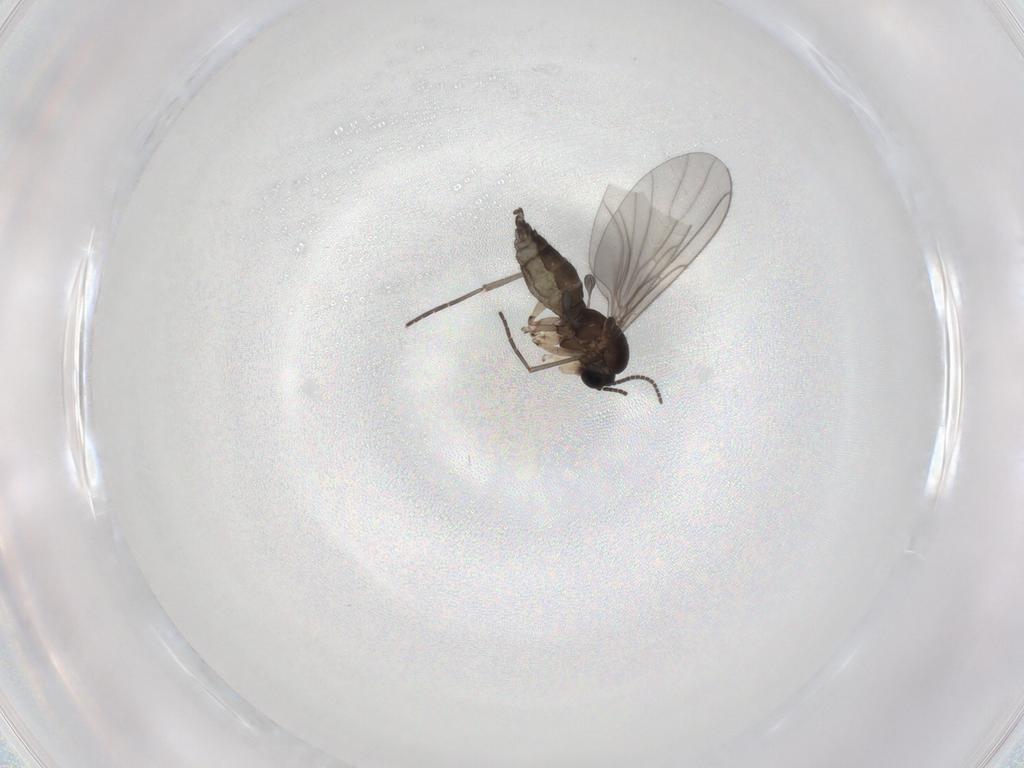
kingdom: Animalia
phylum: Arthropoda
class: Insecta
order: Diptera
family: Sciaridae
